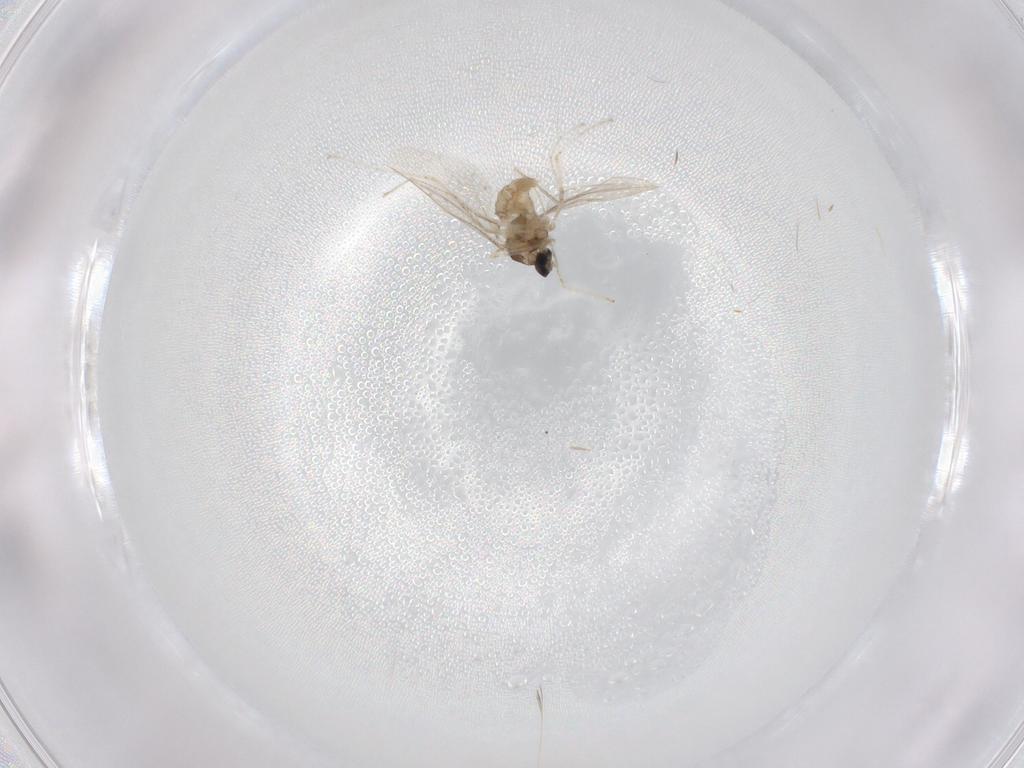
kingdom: Animalia
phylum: Arthropoda
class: Insecta
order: Diptera
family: Cecidomyiidae
